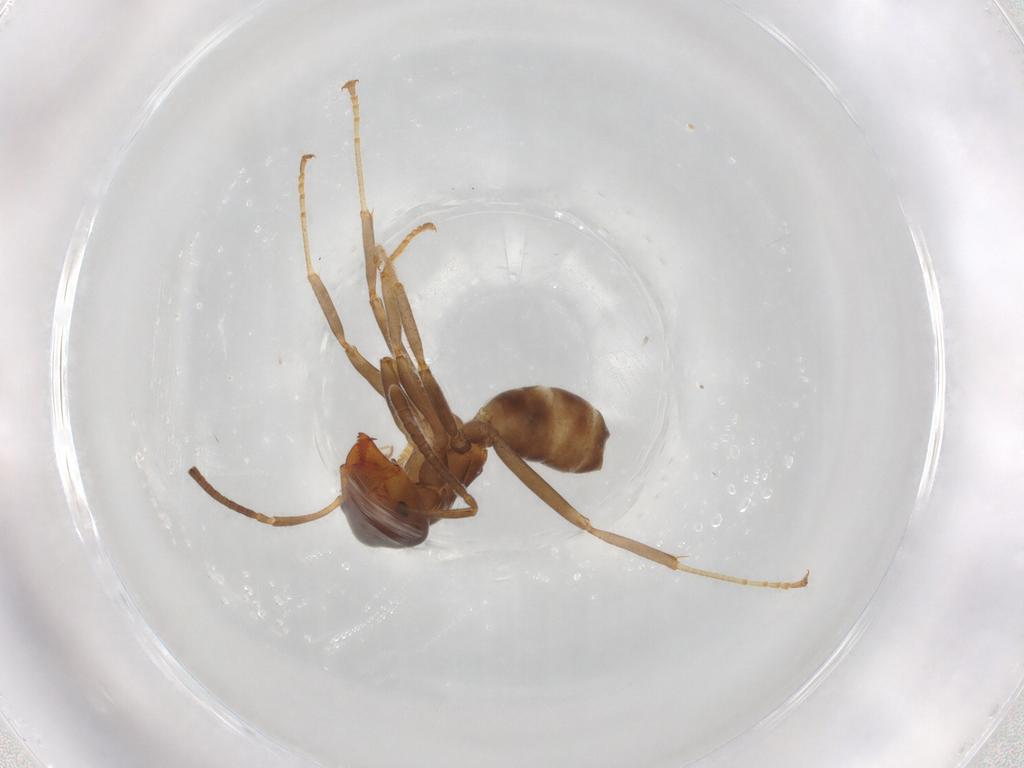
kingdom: Animalia
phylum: Arthropoda
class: Insecta
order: Hymenoptera
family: Formicidae
